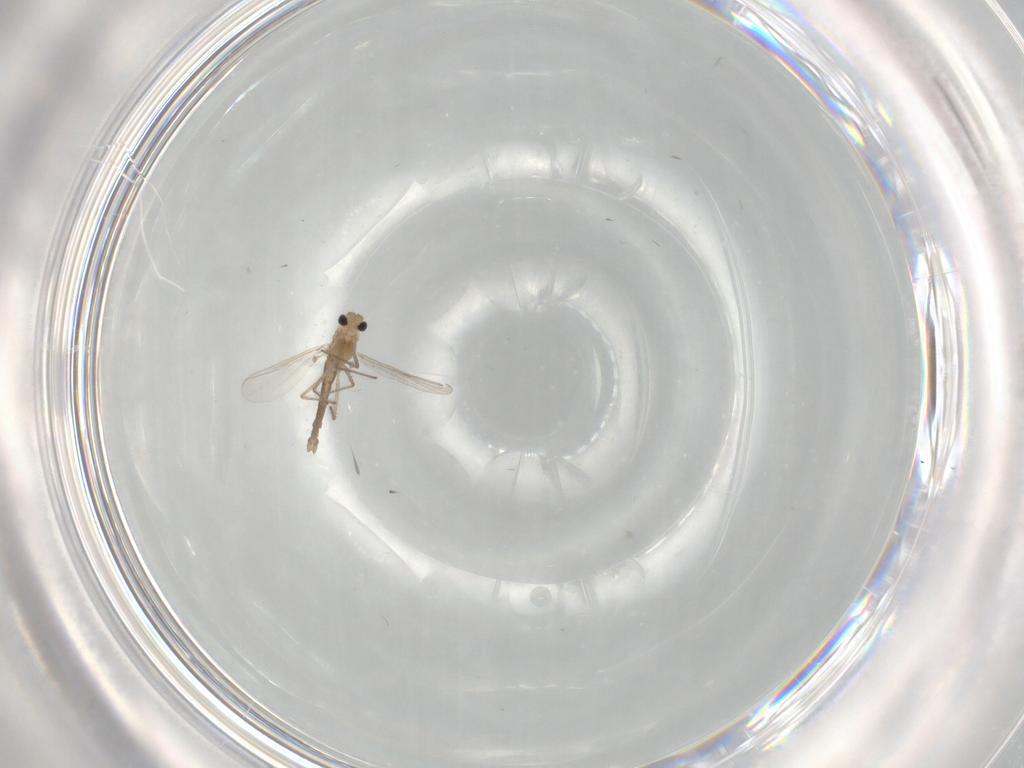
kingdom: Animalia
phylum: Arthropoda
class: Insecta
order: Diptera
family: Chironomidae
